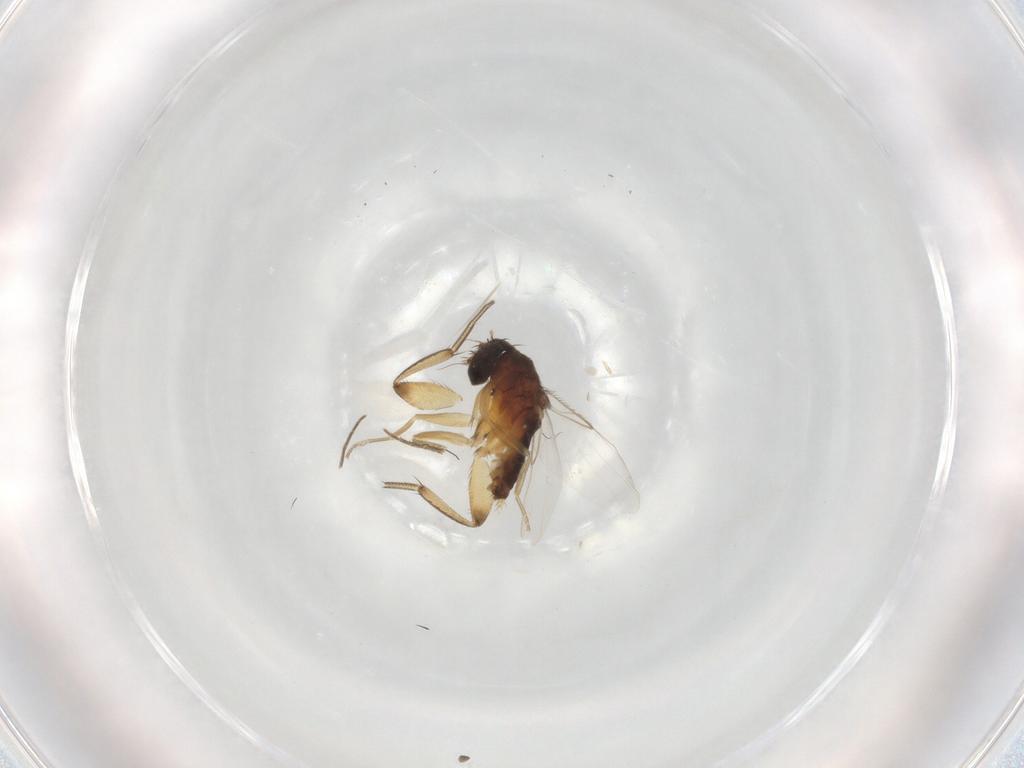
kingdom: Animalia
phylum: Arthropoda
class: Insecta
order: Diptera
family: Phoridae
